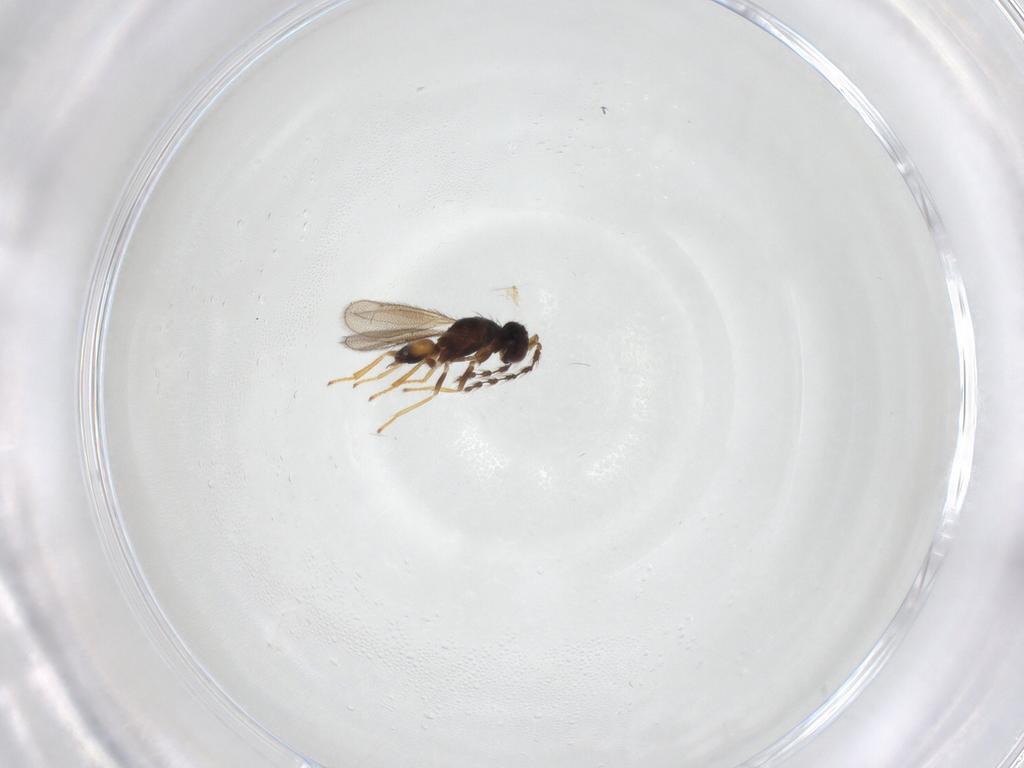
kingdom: Animalia
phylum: Arthropoda
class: Insecta
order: Hymenoptera
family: Eulophidae
